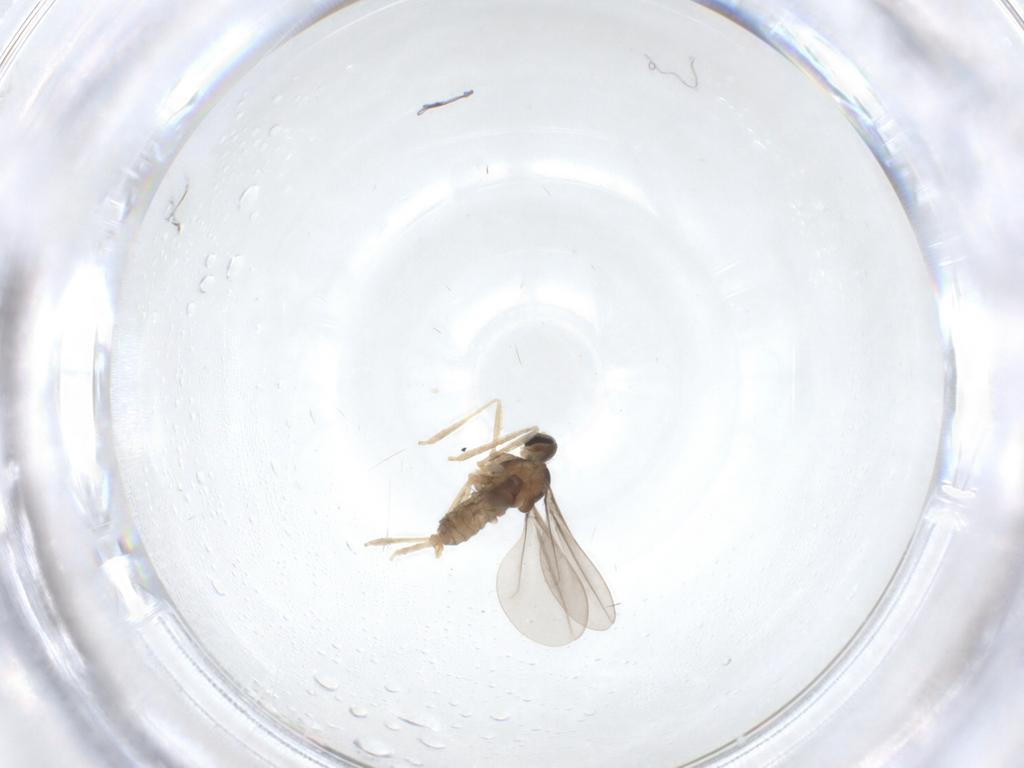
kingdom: Animalia
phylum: Arthropoda
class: Insecta
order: Diptera
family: Cecidomyiidae
